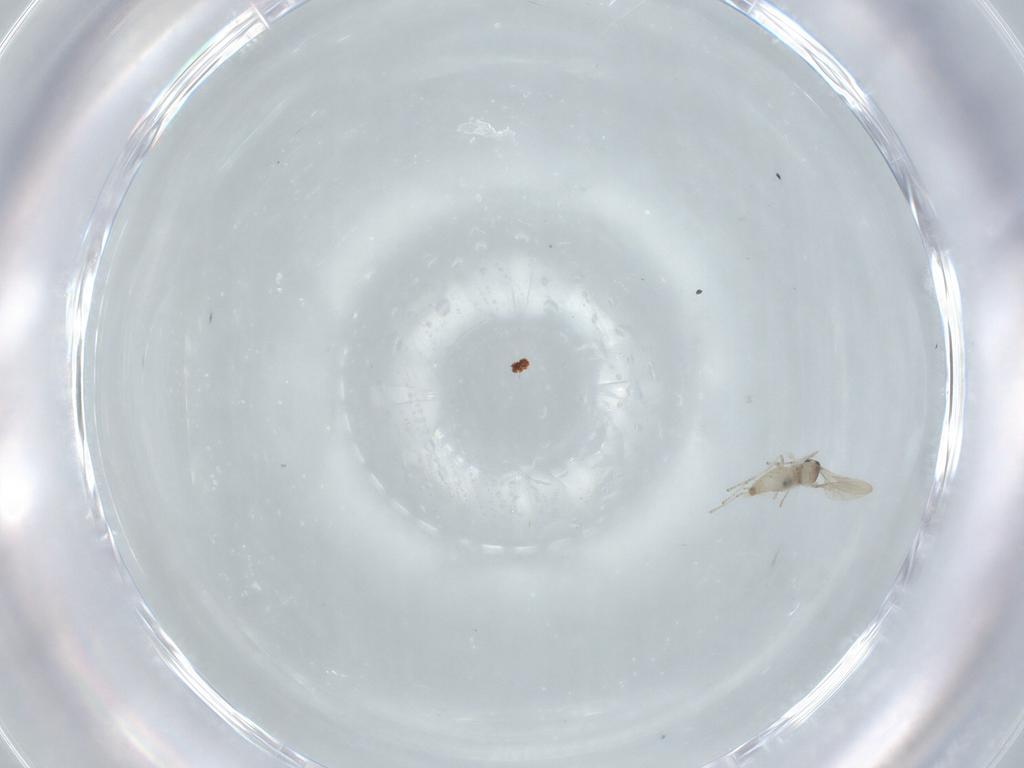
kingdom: Animalia
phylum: Arthropoda
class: Insecta
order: Diptera
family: Cecidomyiidae
